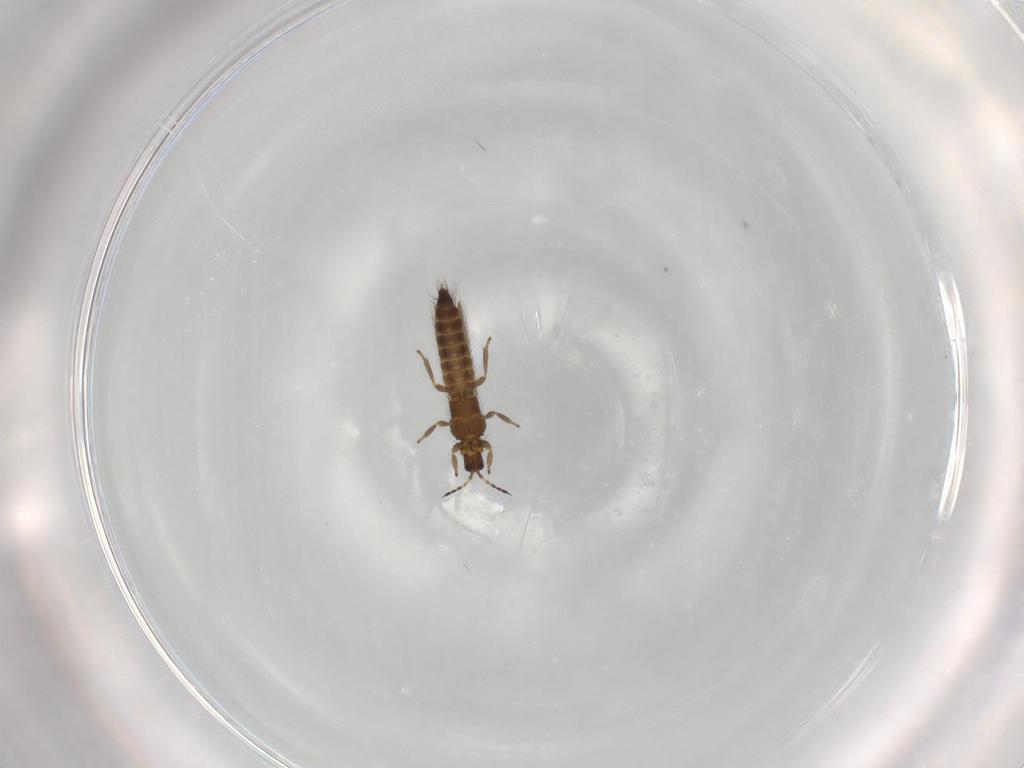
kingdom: Animalia
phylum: Arthropoda
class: Insecta
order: Thysanoptera
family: Thripidae
